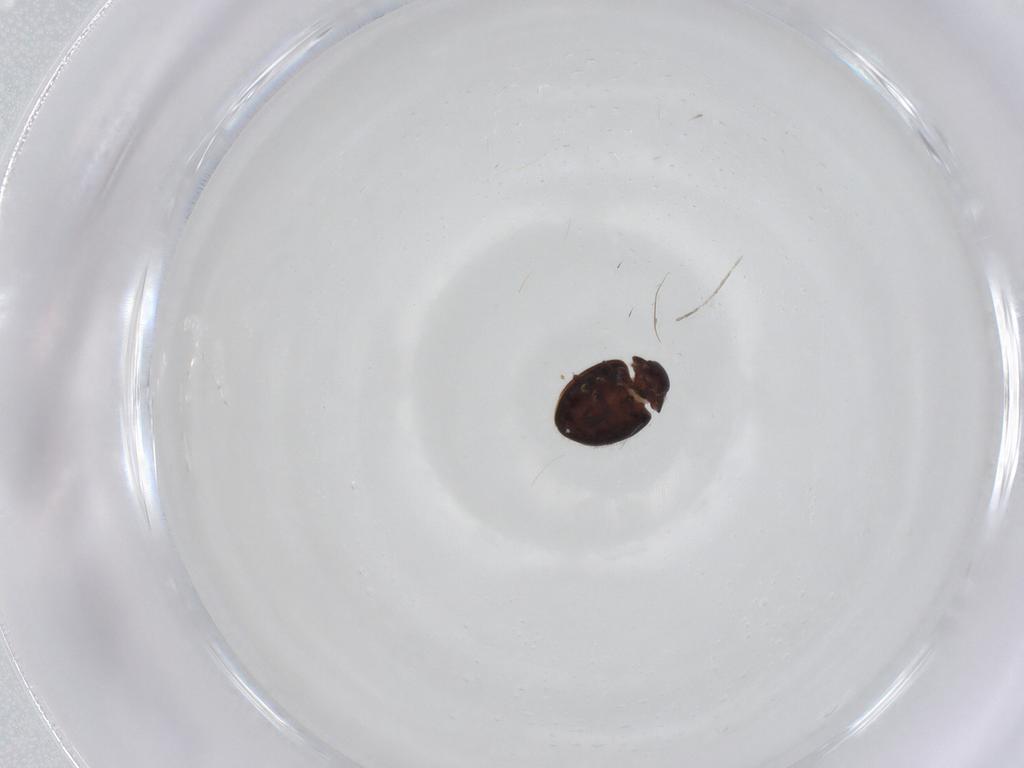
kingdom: Animalia
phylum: Arthropoda
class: Insecta
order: Coleoptera
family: Coccinellidae
